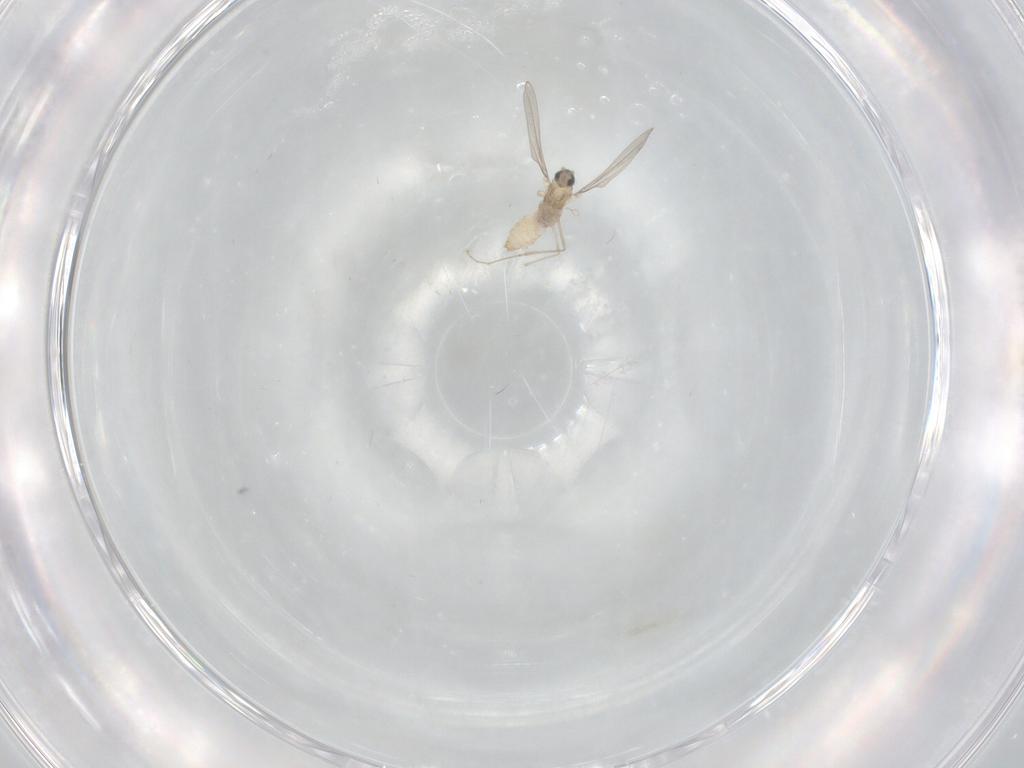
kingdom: Animalia
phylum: Arthropoda
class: Insecta
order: Diptera
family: Cecidomyiidae
